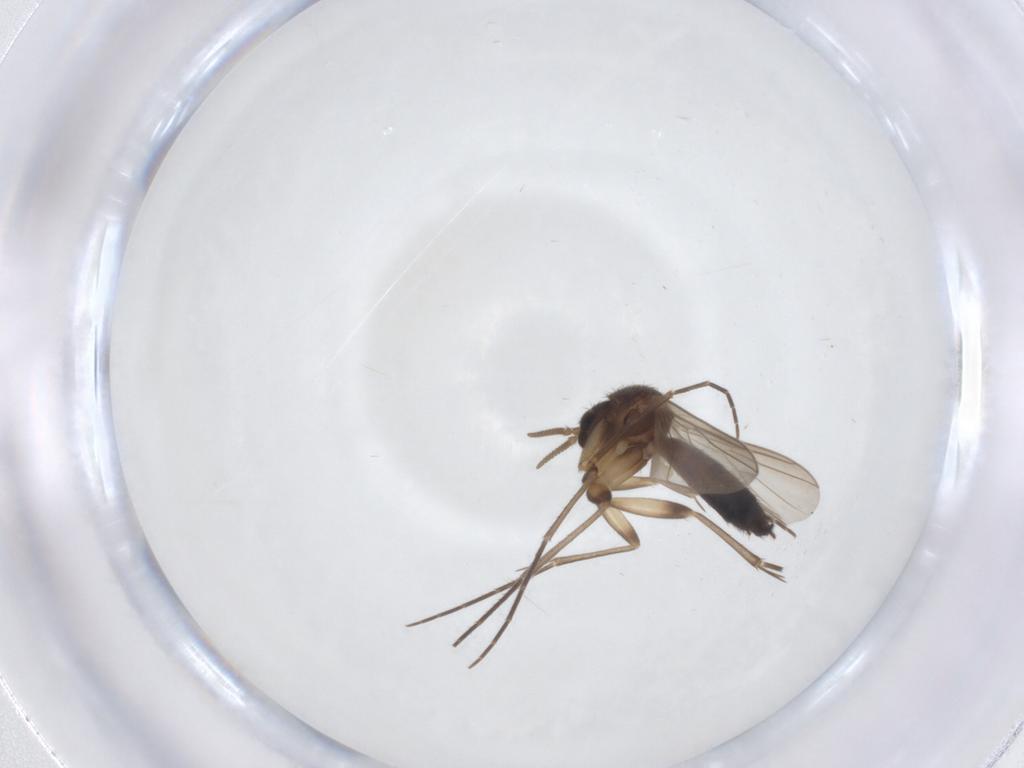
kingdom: Animalia
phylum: Arthropoda
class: Insecta
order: Diptera
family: Mycetophilidae
